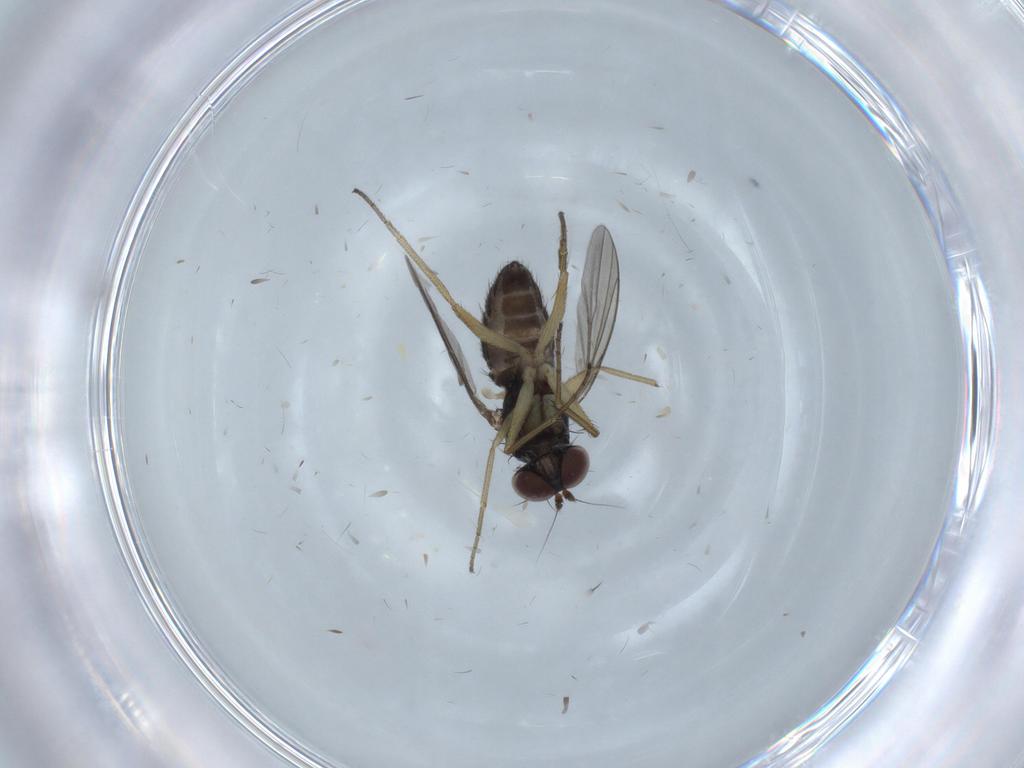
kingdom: Animalia
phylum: Arthropoda
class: Insecta
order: Diptera
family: Dolichopodidae
